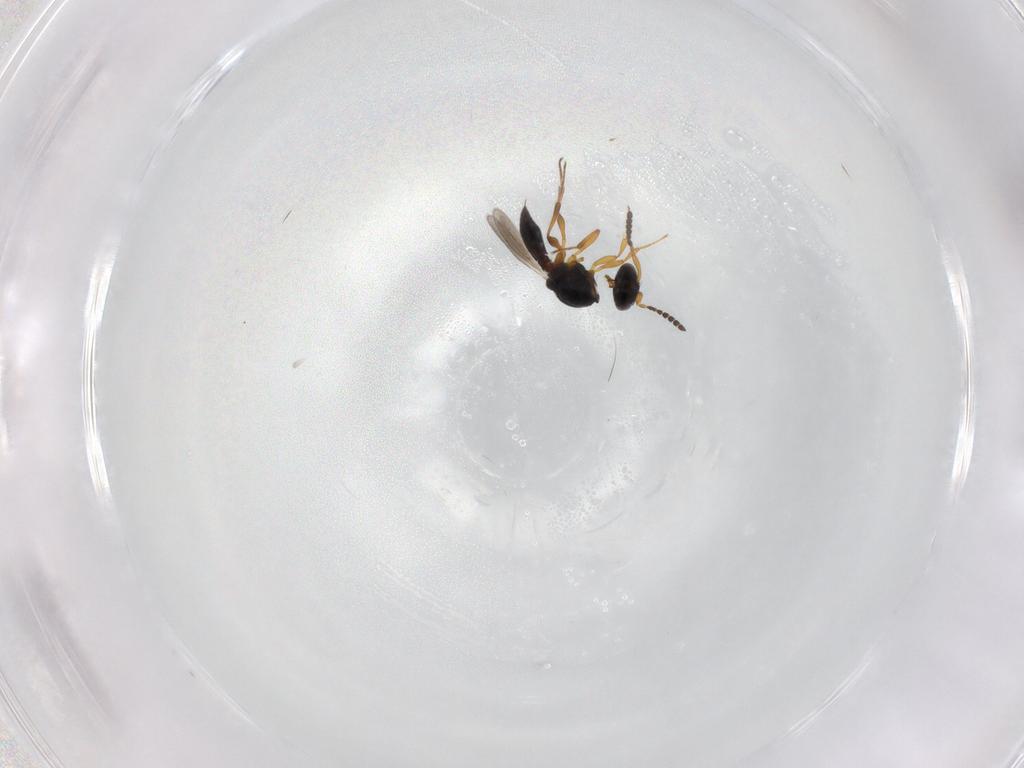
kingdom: Animalia
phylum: Arthropoda
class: Insecta
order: Hymenoptera
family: Platygastridae
